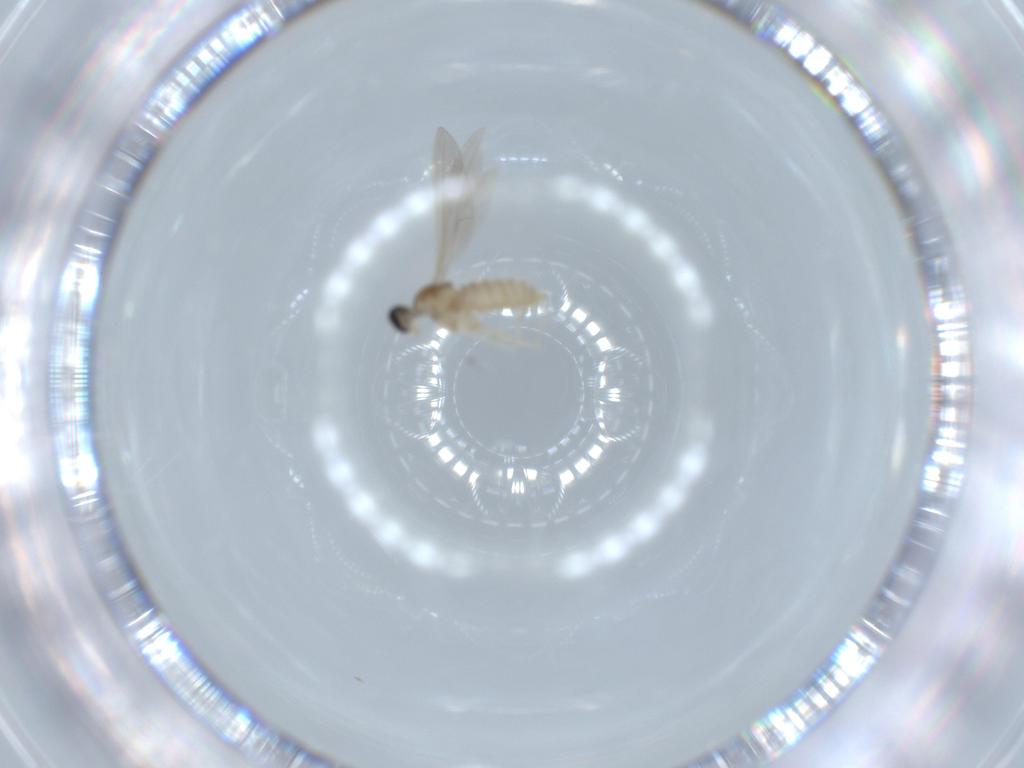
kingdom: Animalia
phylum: Arthropoda
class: Insecta
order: Diptera
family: Cecidomyiidae
